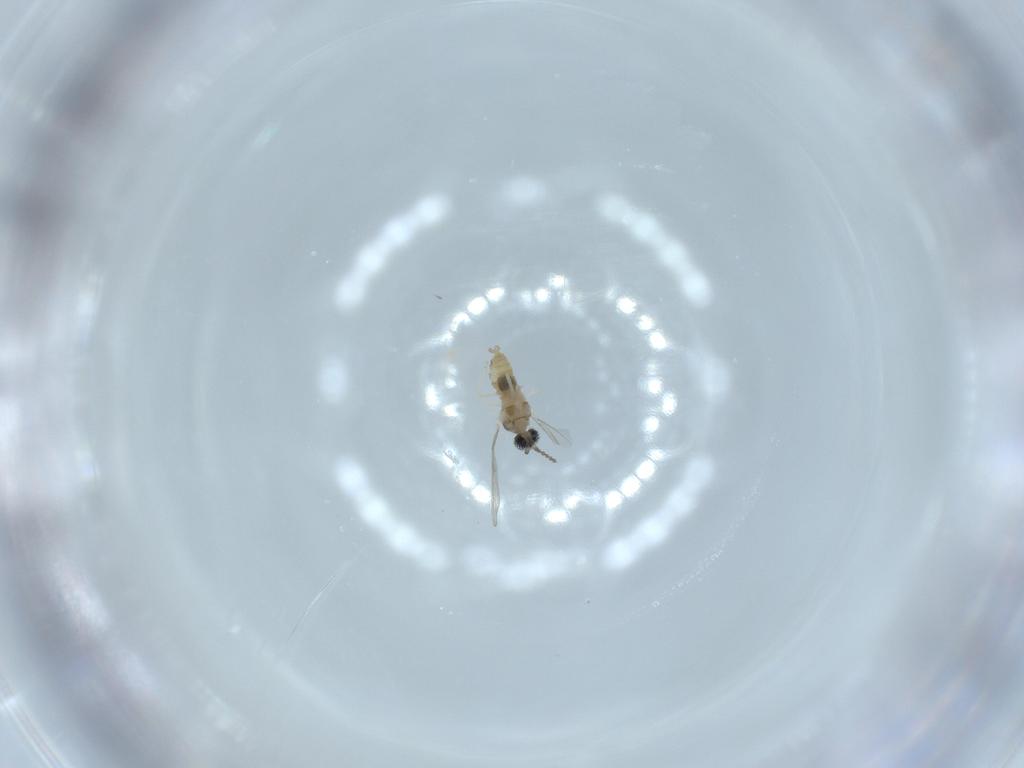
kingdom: Animalia
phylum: Arthropoda
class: Insecta
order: Diptera
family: Cecidomyiidae
